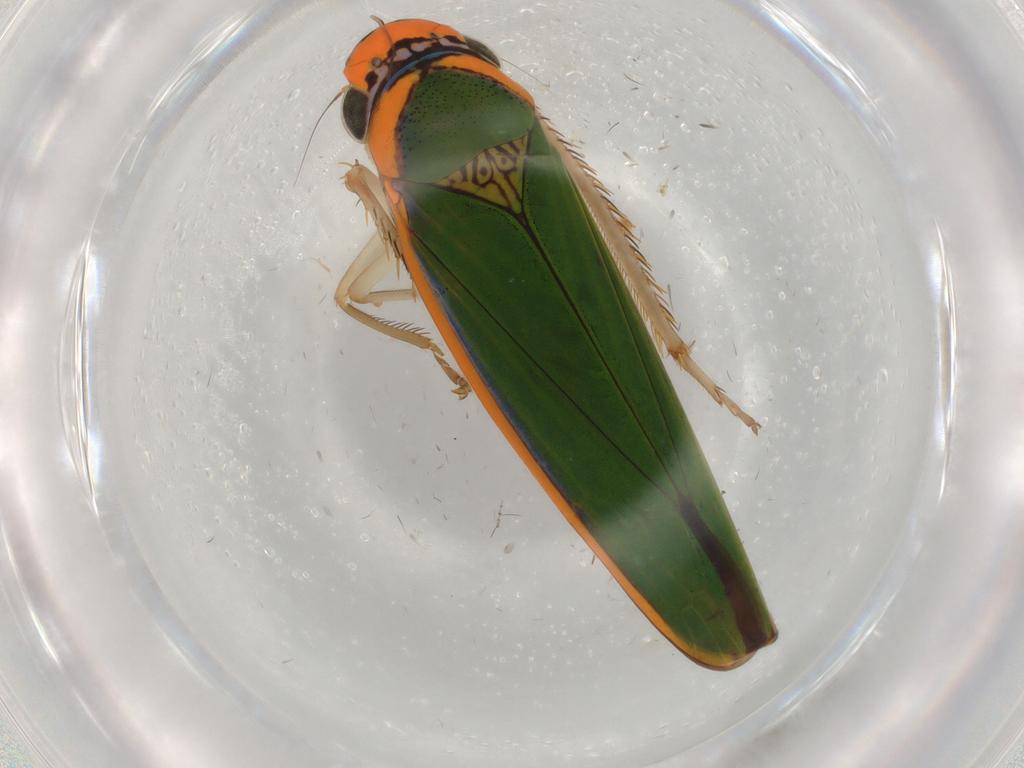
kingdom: Animalia
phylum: Arthropoda
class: Insecta
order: Hemiptera
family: Cicadellidae
